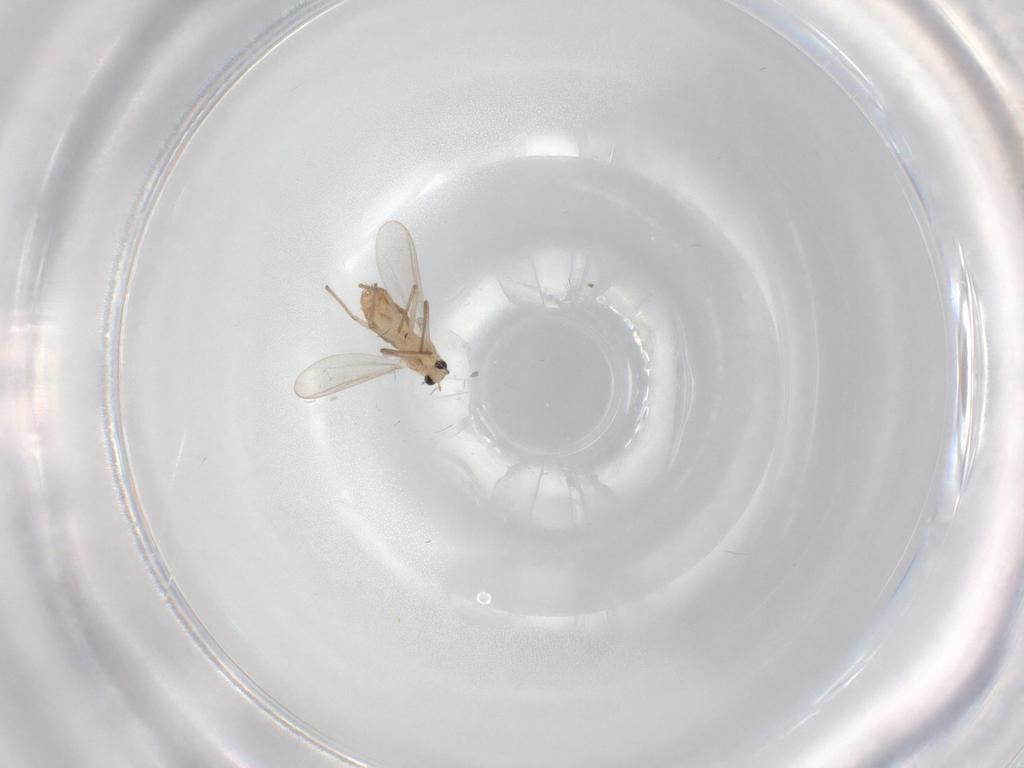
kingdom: Animalia
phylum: Arthropoda
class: Insecta
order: Diptera
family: Chironomidae
